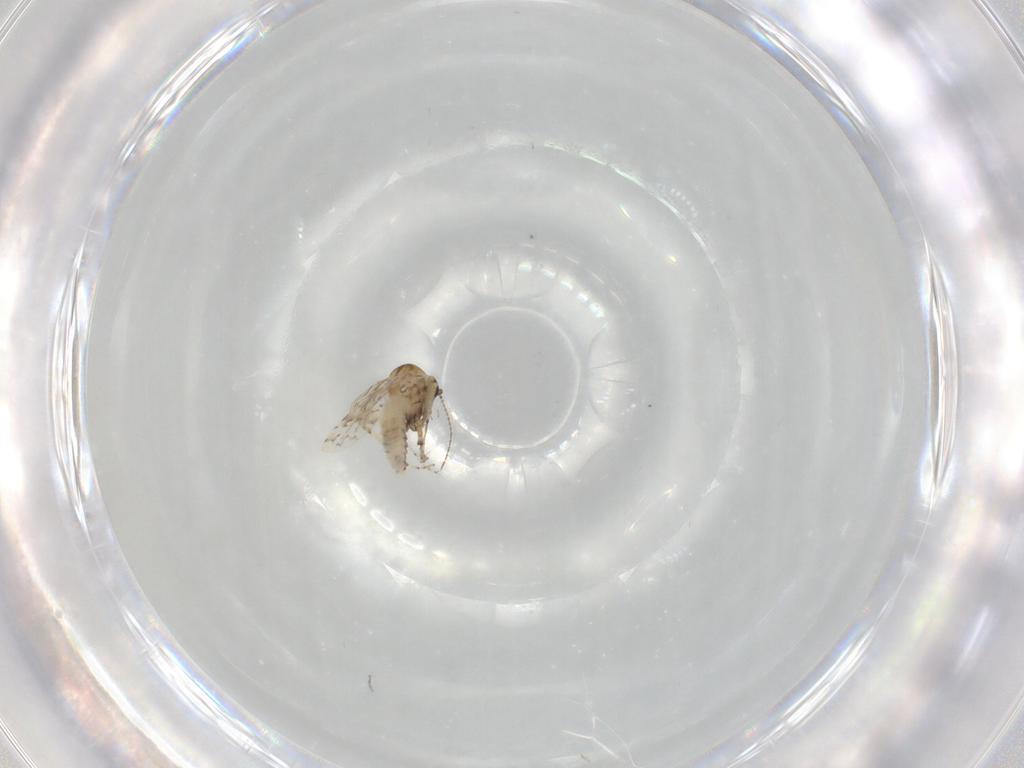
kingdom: Animalia
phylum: Arthropoda
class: Insecta
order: Diptera
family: Ceratopogonidae
